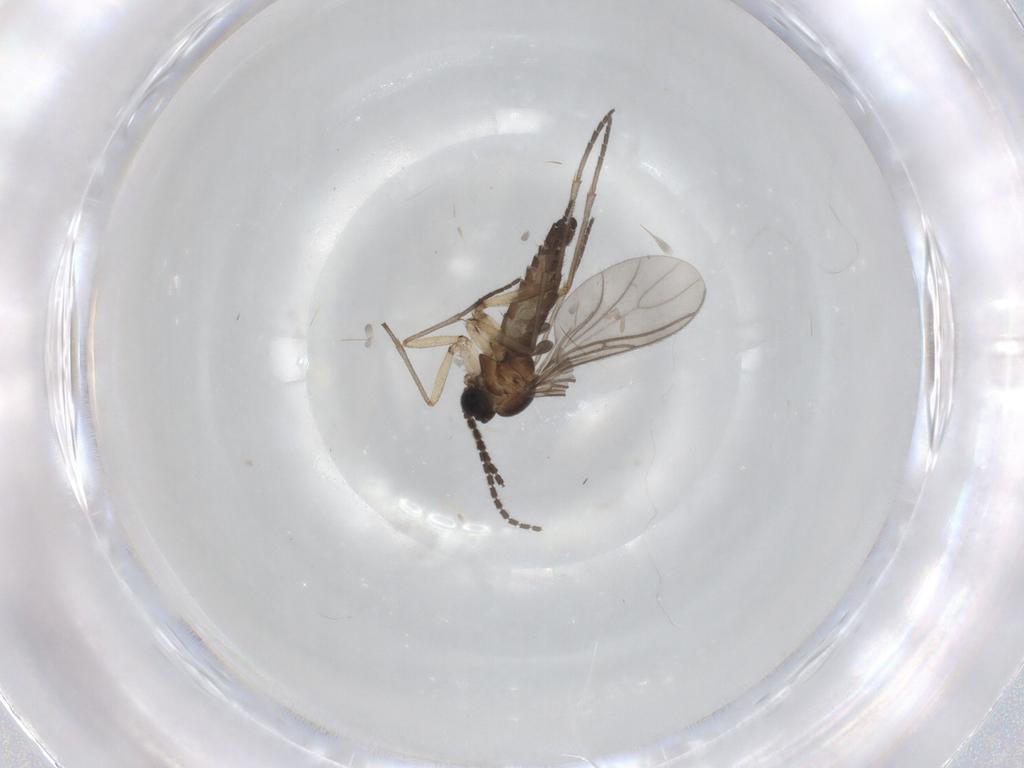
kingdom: Animalia
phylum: Arthropoda
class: Insecta
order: Diptera
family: Sciaridae
